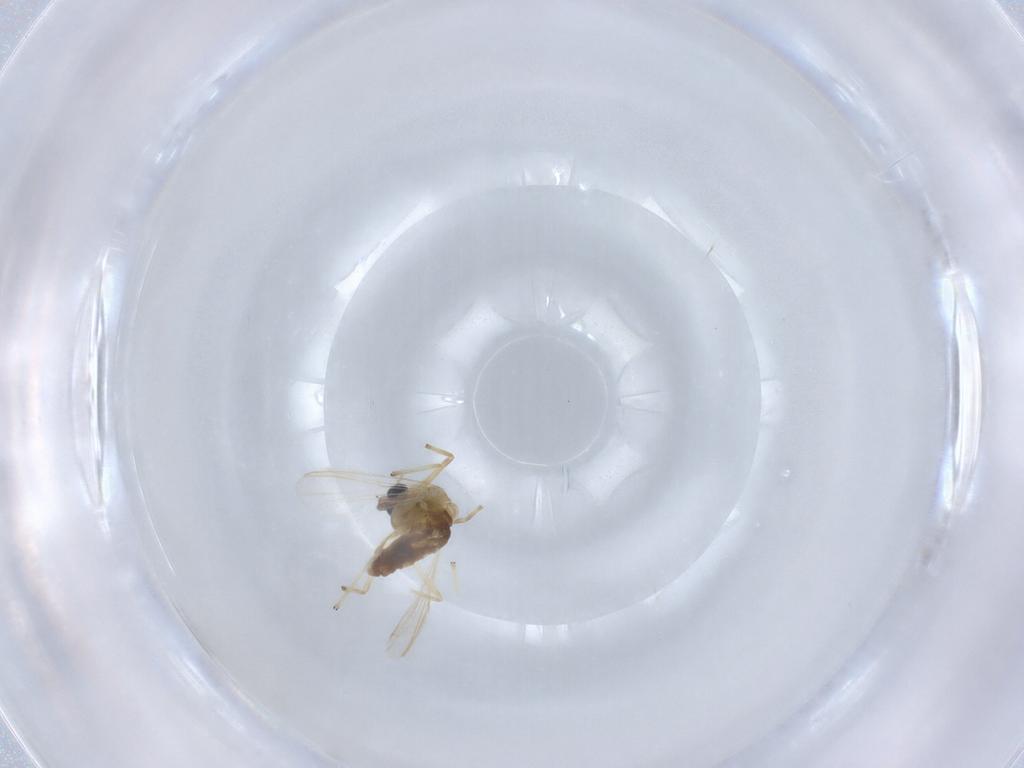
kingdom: Animalia
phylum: Arthropoda
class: Insecta
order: Diptera
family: Chironomidae
